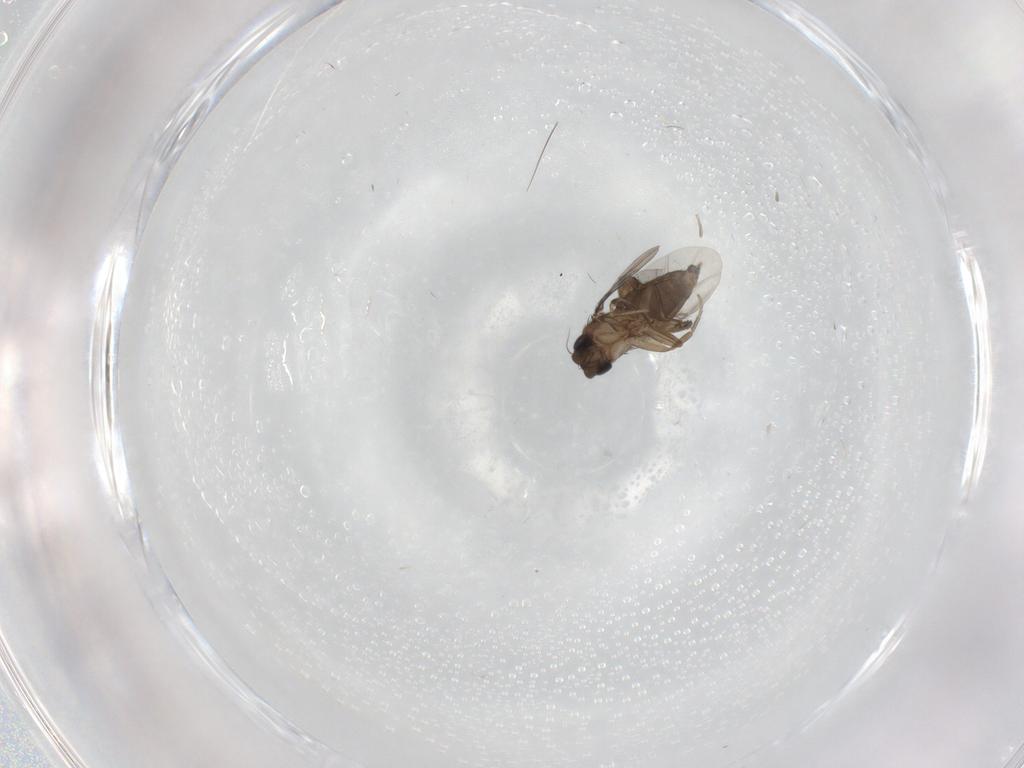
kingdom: Animalia
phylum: Arthropoda
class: Insecta
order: Diptera
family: Phoridae
